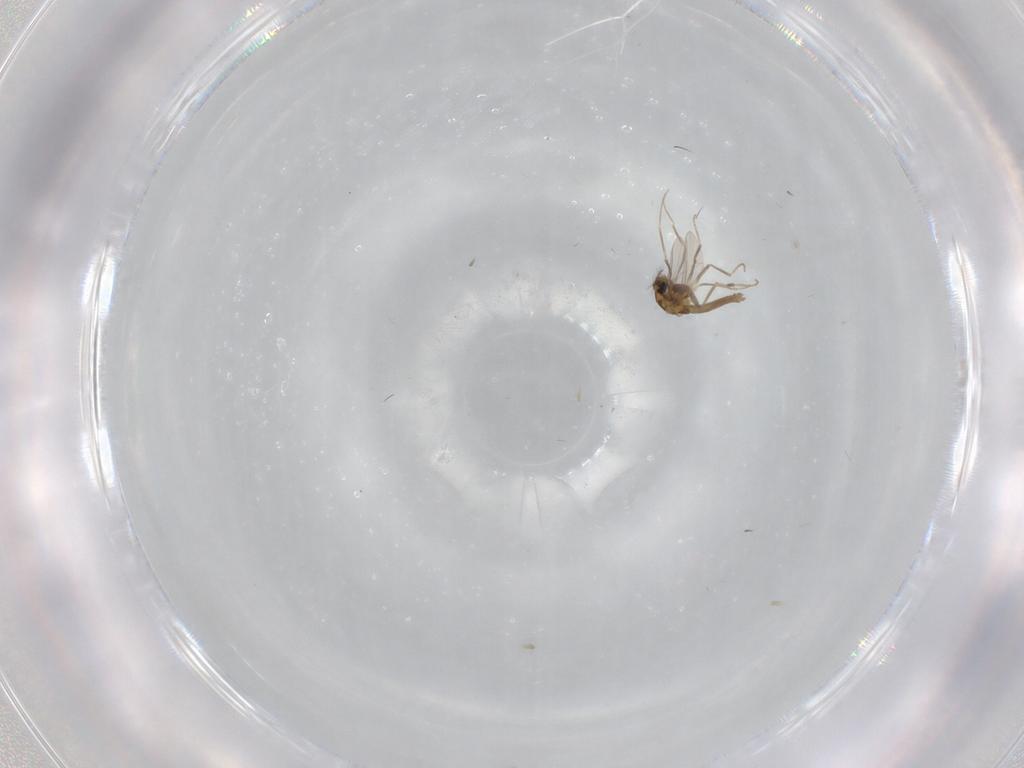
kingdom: Animalia
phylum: Arthropoda
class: Insecta
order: Diptera
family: Chironomidae
